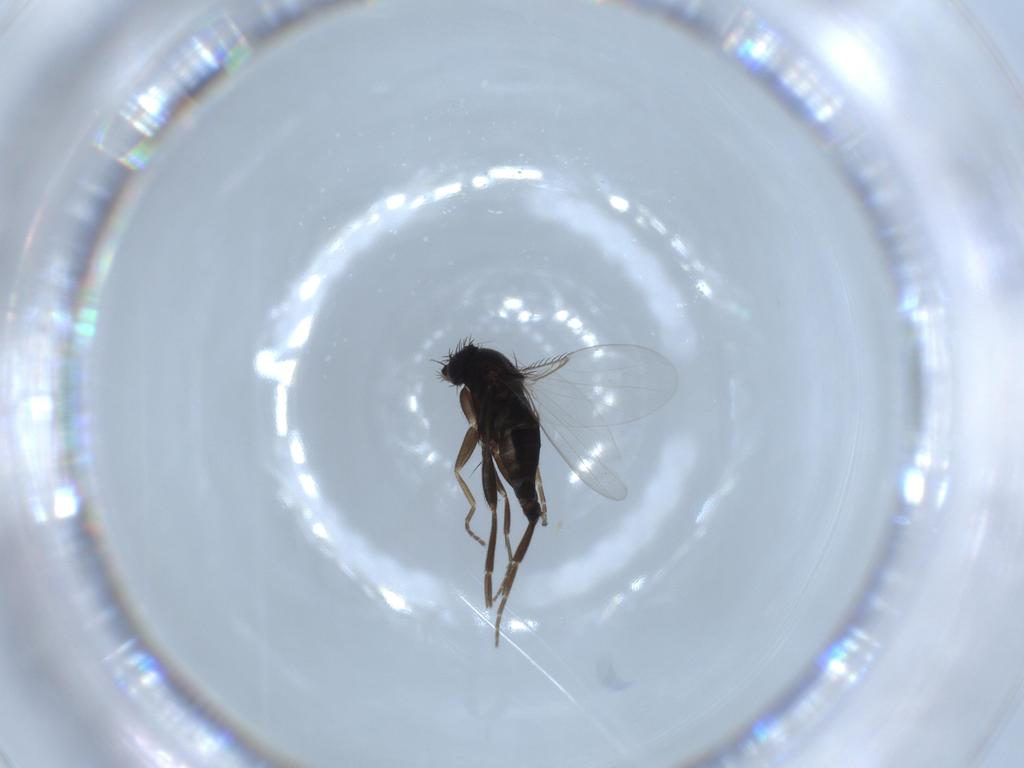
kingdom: Animalia
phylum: Arthropoda
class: Insecta
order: Diptera
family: Phoridae
